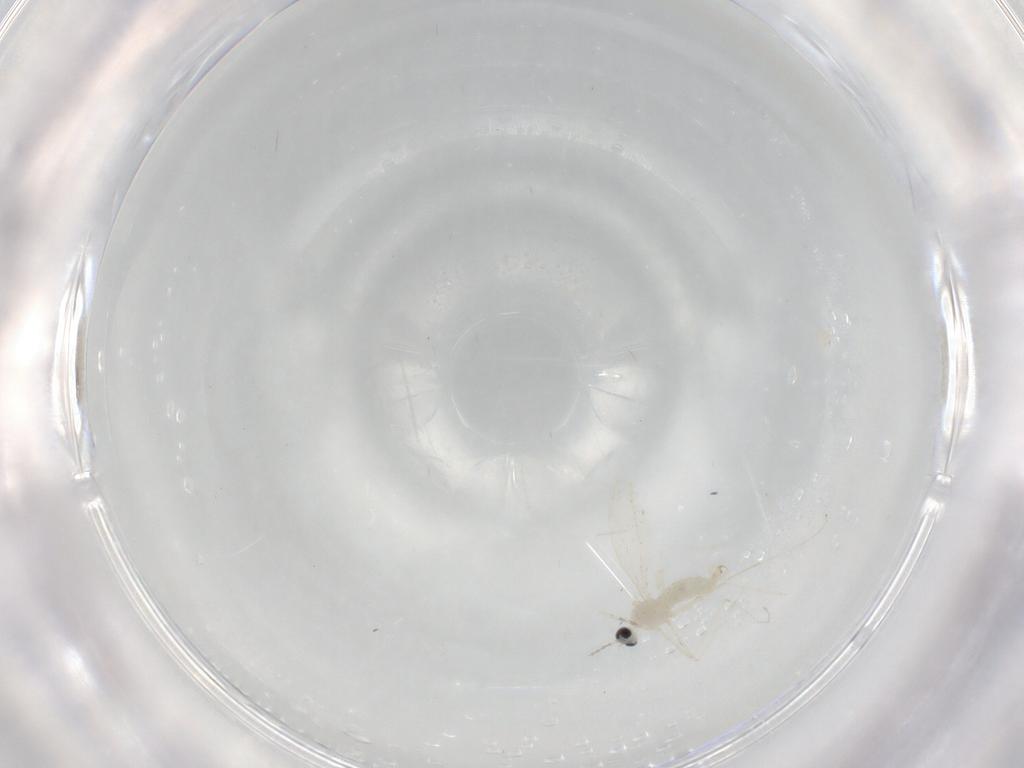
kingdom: Animalia
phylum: Arthropoda
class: Insecta
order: Diptera
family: Cecidomyiidae
